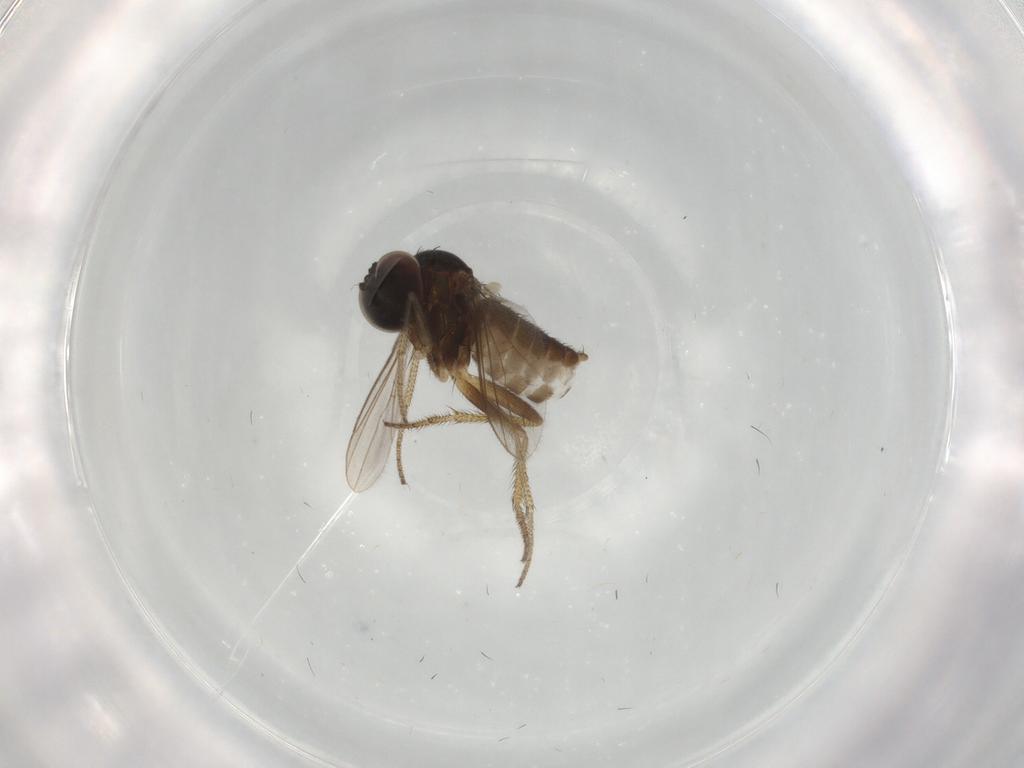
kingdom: Animalia
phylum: Arthropoda
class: Insecta
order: Diptera
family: Dolichopodidae
